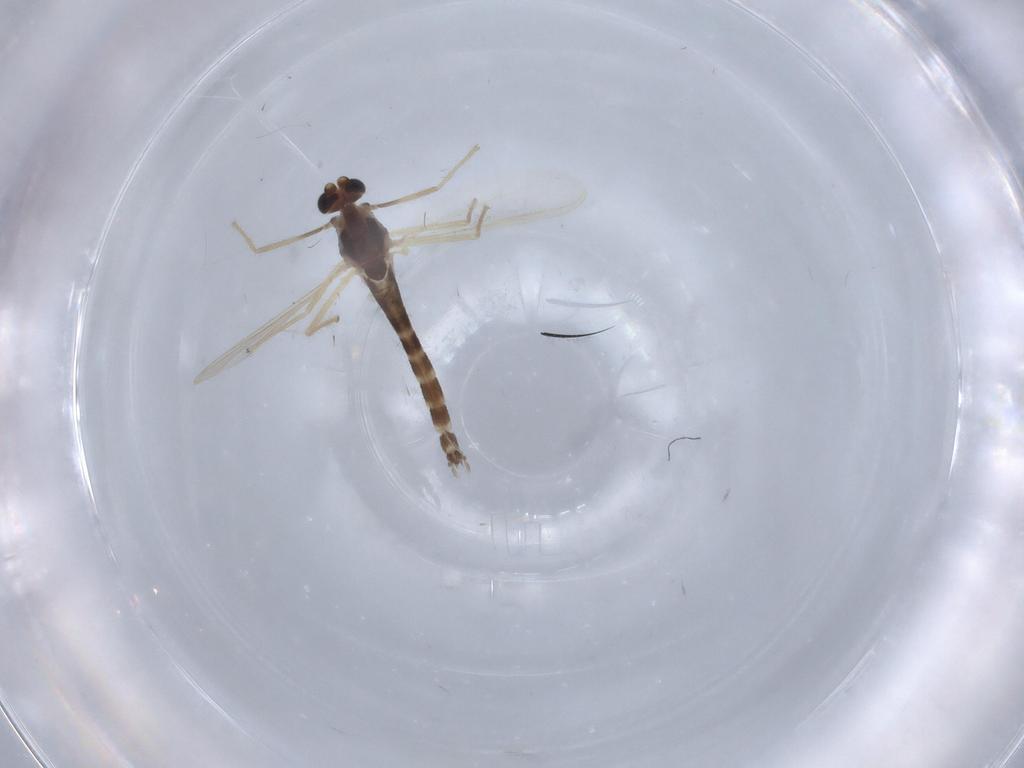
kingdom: Animalia
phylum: Arthropoda
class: Insecta
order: Diptera
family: Chironomidae
